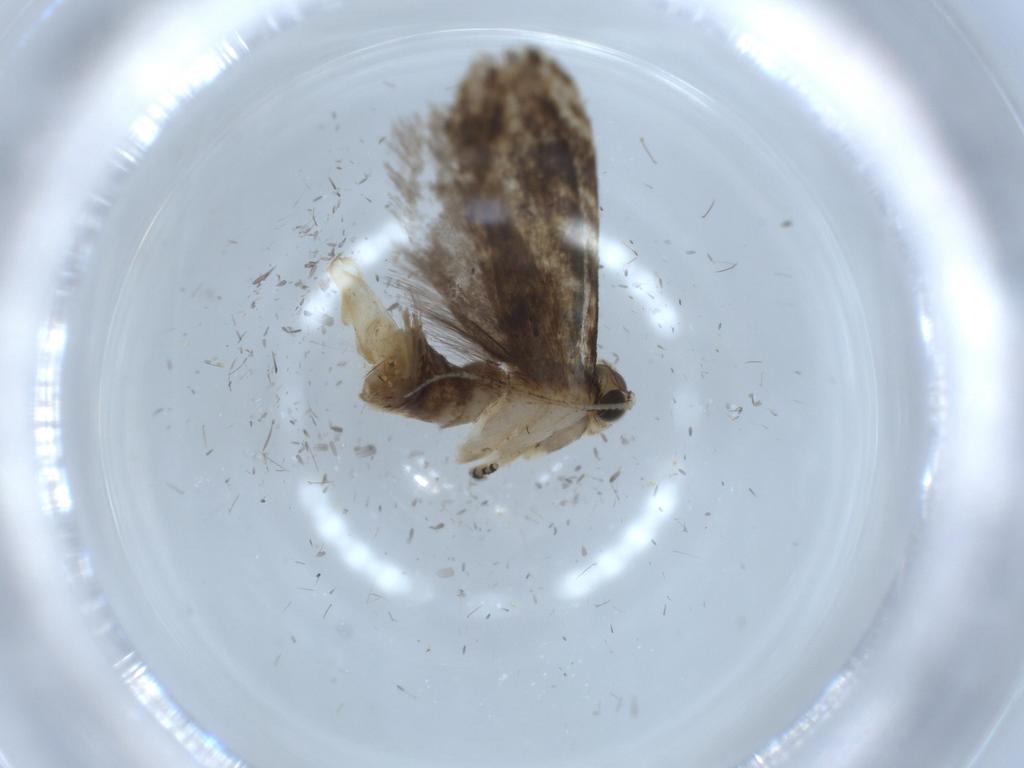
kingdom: Animalia
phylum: Arthropoda
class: Insecta
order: Lepidoptera
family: Tineidae
